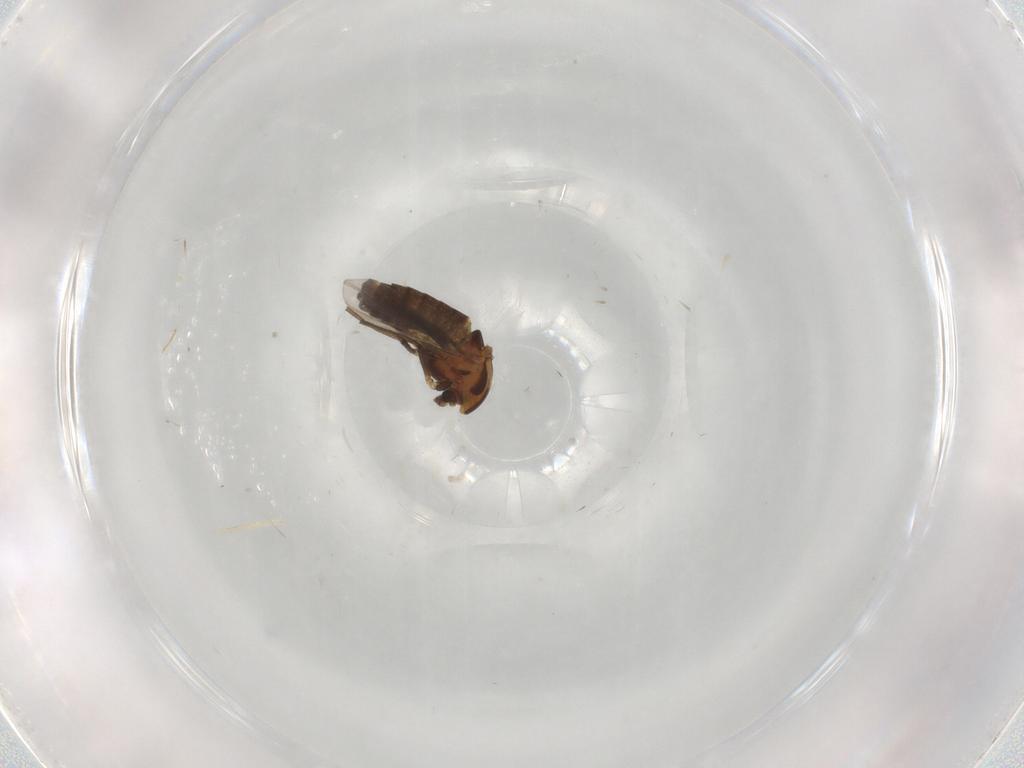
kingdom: Animalia
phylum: Arthropoda
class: Insecta
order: Diptera
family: Chironomidae
